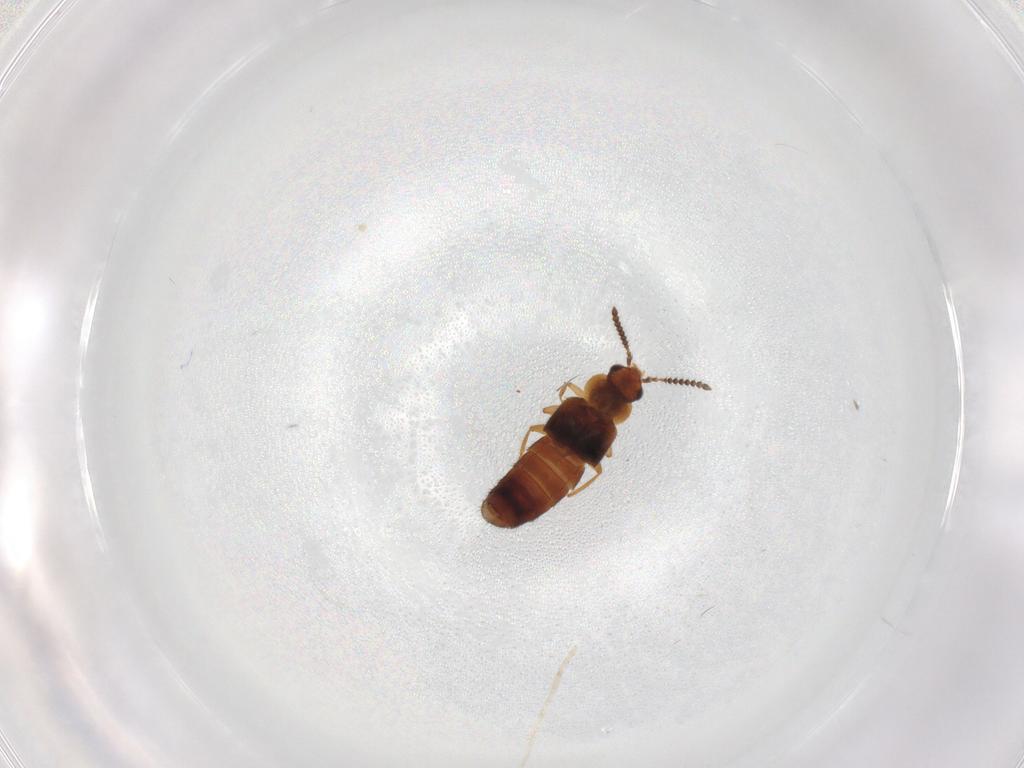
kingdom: Animalia
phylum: Arthropoda
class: Insecta
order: Coleoptera
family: Staphylinidae
